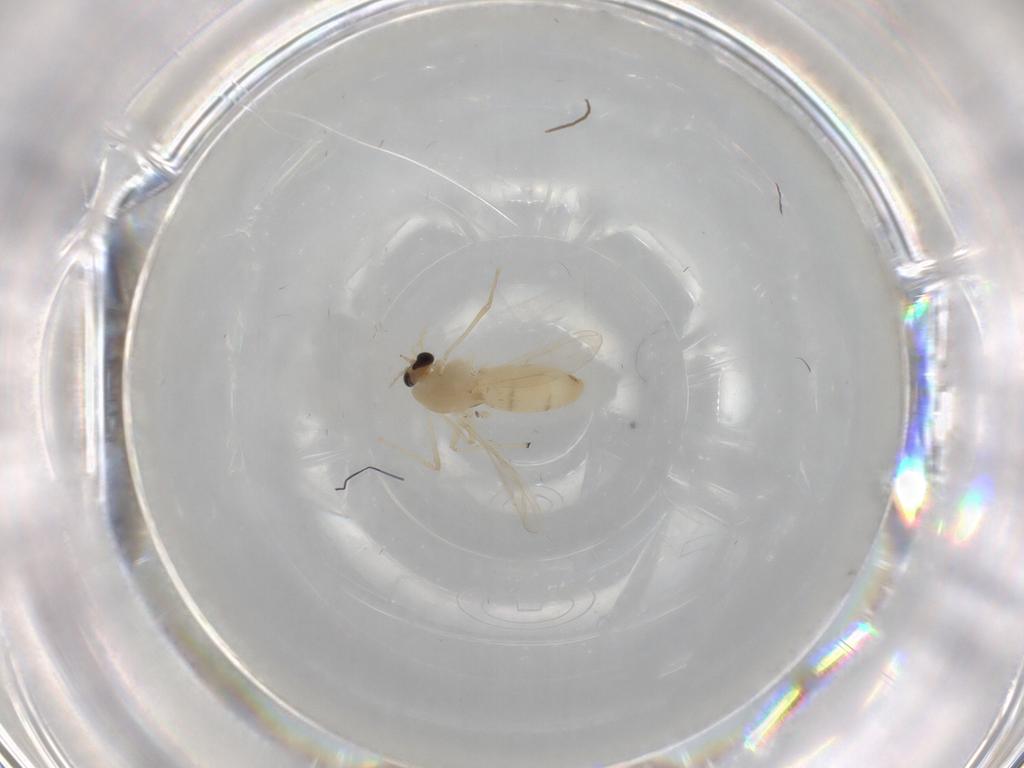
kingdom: Animalia
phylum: Arthropoda
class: Insecta
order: Diptera
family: Chironomidae
